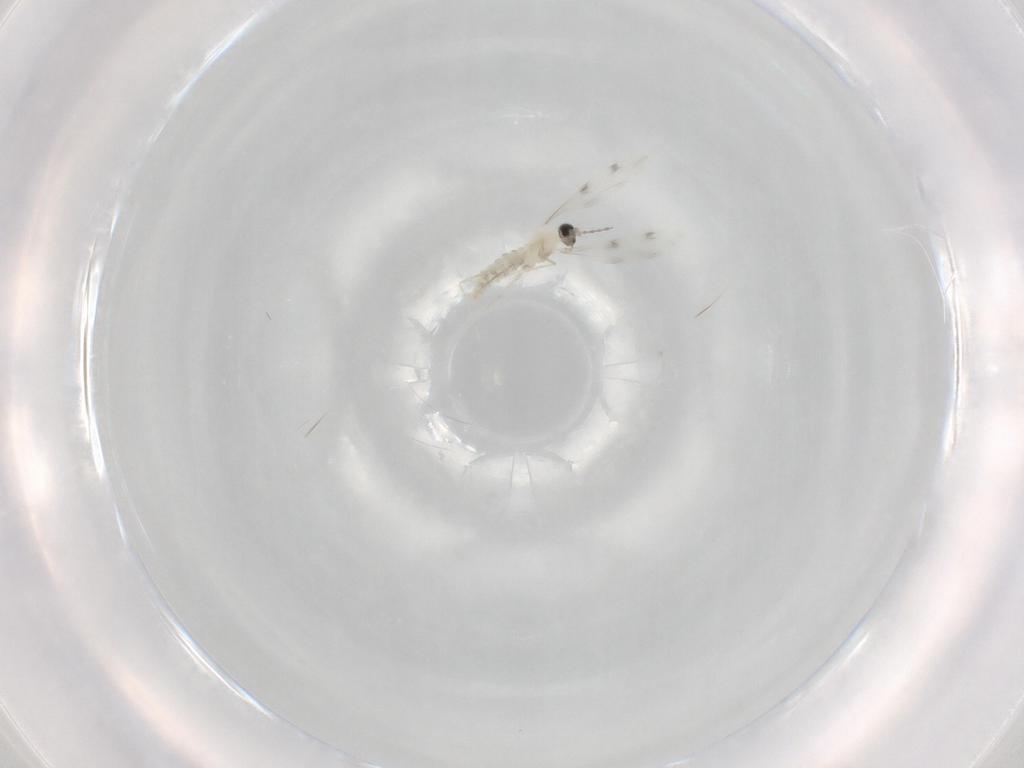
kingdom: Animalia
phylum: Arthropoda
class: Insecta
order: Diptera
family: Cecidomyiidae
